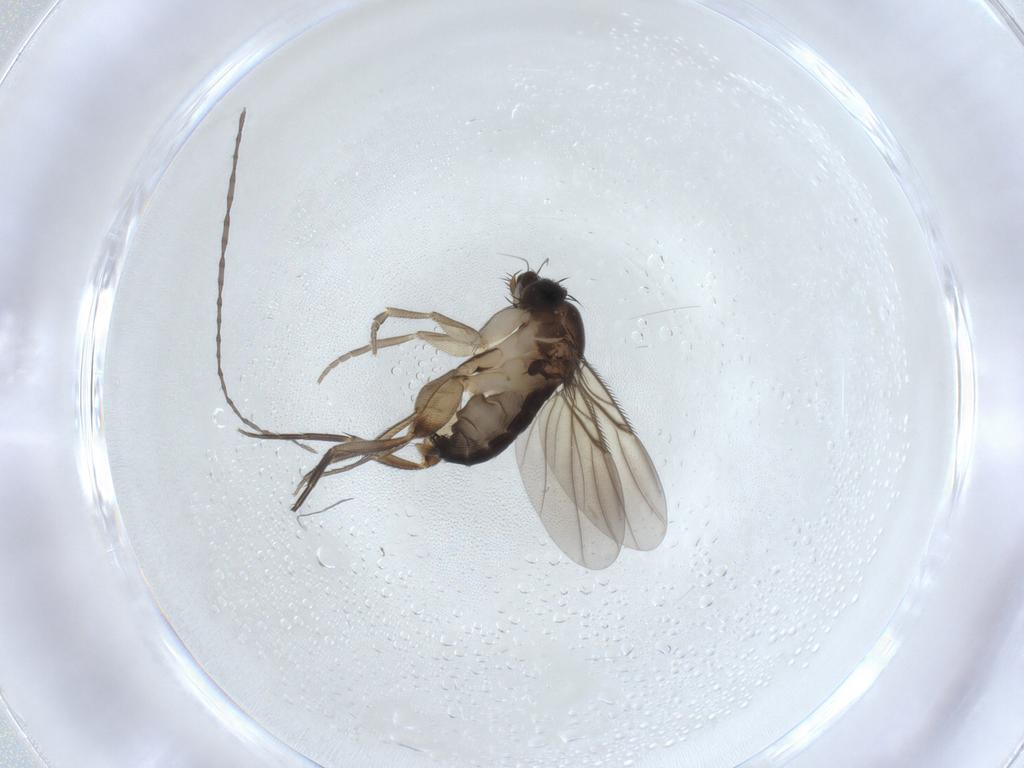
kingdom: Animalia
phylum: Arthropoda
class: Insecta
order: Diptera
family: Phoridae
